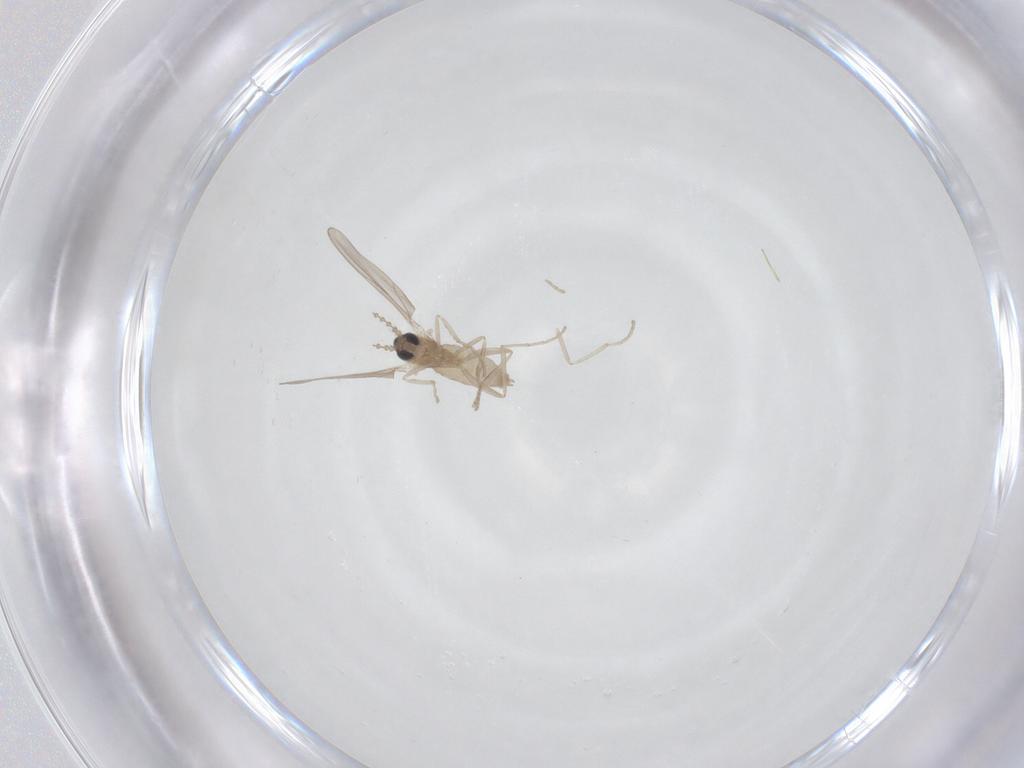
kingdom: Animalia
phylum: Arthropoda
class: Insecta
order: Diptera
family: Cecidomyiidae
